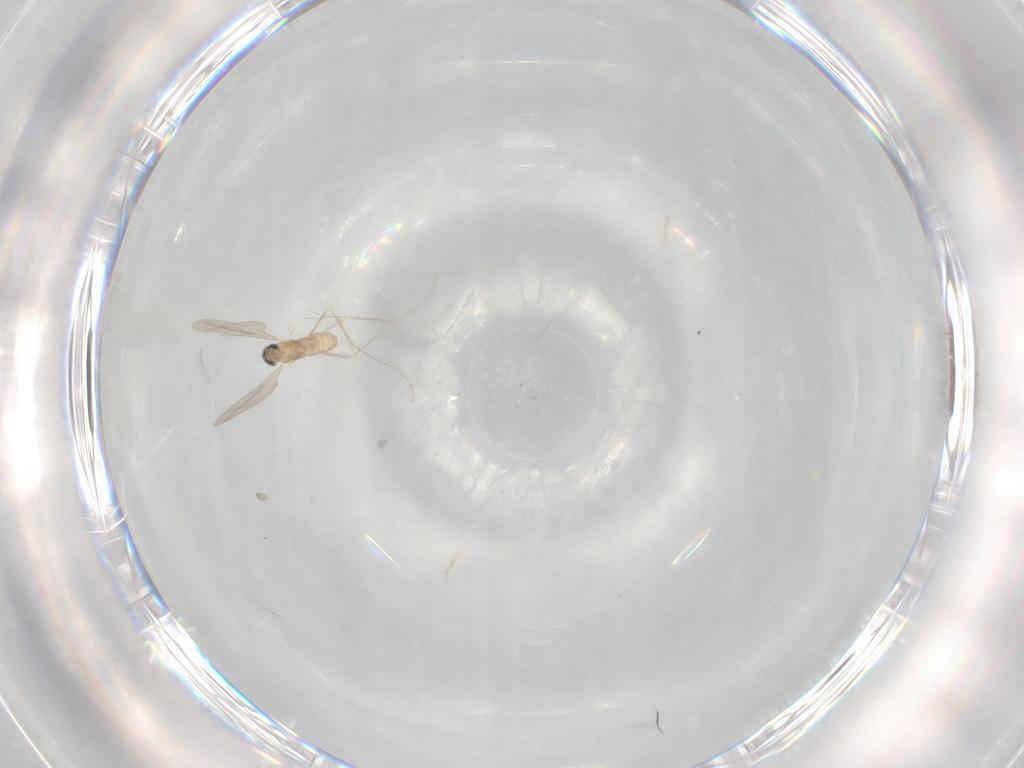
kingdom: Animalia
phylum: Arthropoda
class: Insecta
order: Diptera
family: Cecidomyiidae
